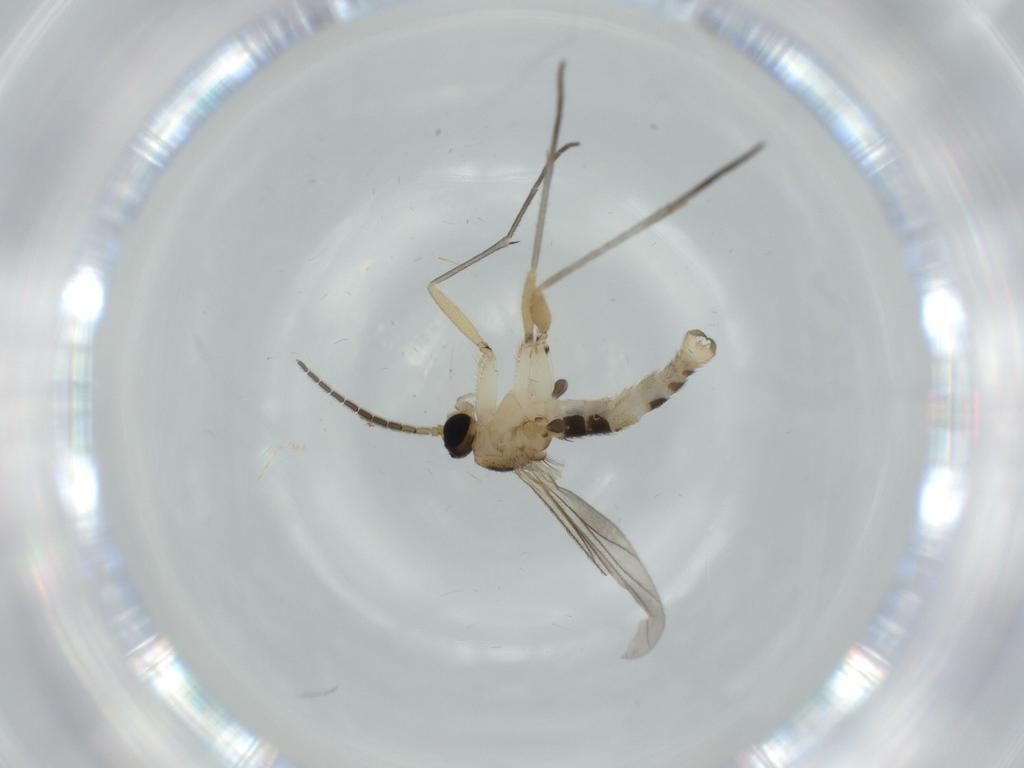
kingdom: Animalia
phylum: Arthropoda
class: Insecta
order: Diptera
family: Sciaridae
